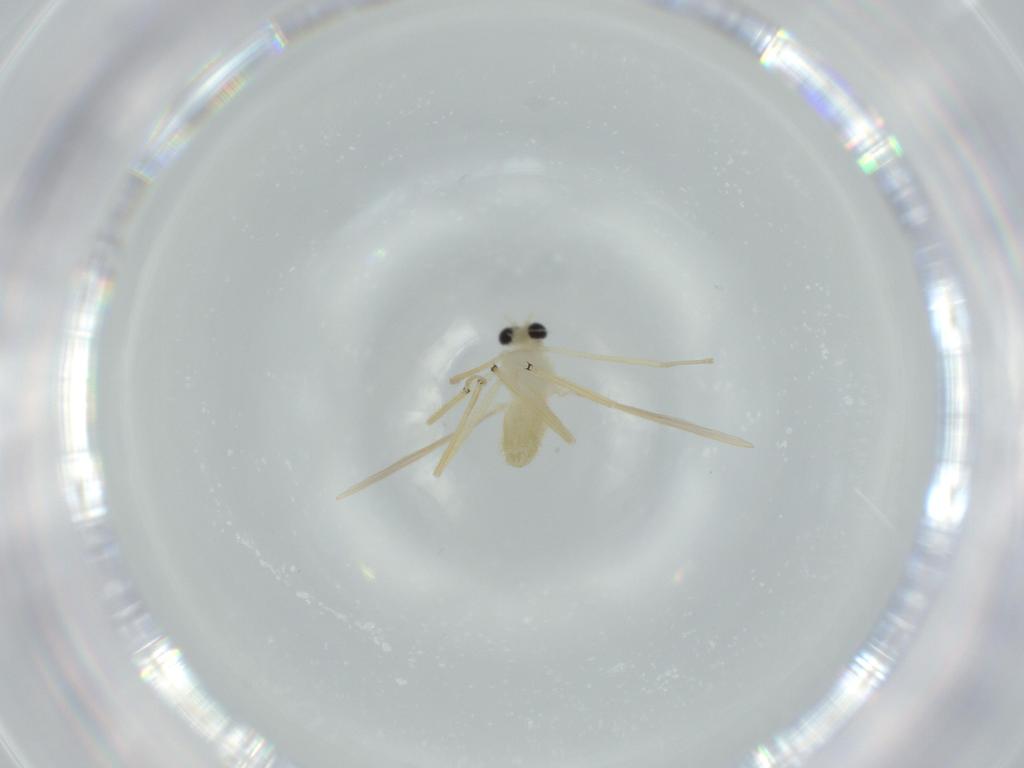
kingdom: Animalia
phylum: Arthropoda
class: Insecta
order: Diptera
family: Chironomidae
